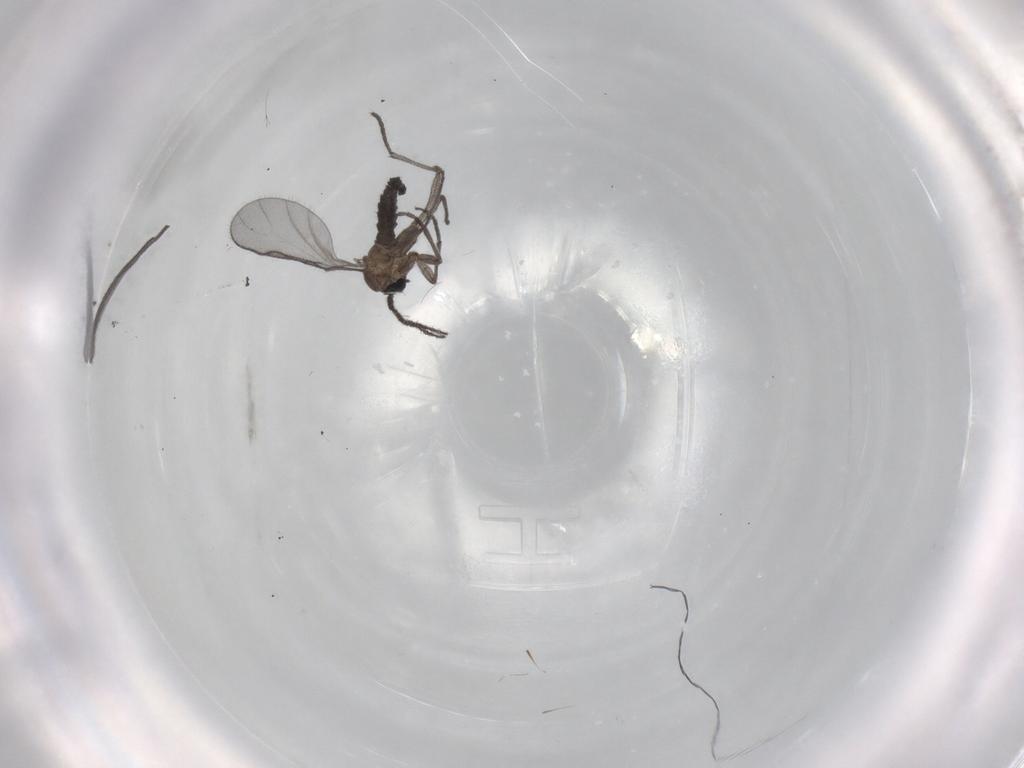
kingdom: Animalia
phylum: Arthropoda
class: Insecta
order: Diptera
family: Sciaridae
